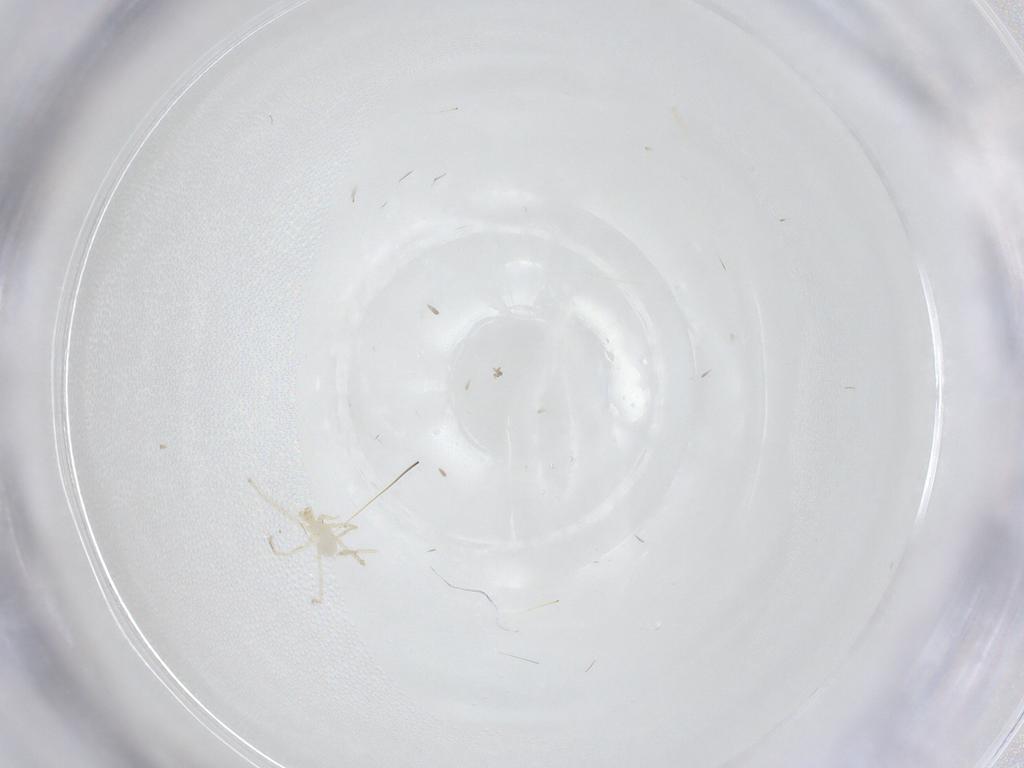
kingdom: Animalia
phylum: Arthropoda
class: Arachnida
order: Trombidiformes
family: Erythraeidae
